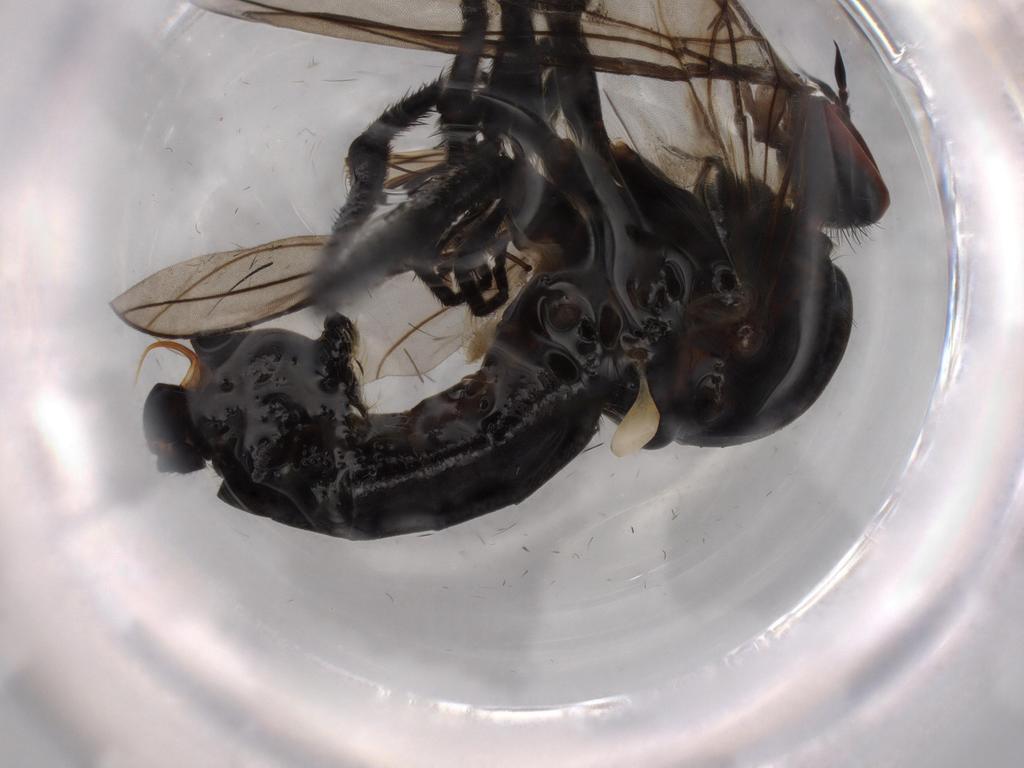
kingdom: Animalia
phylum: Arthropoda
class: Insecta
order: Diptera
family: Empididae
